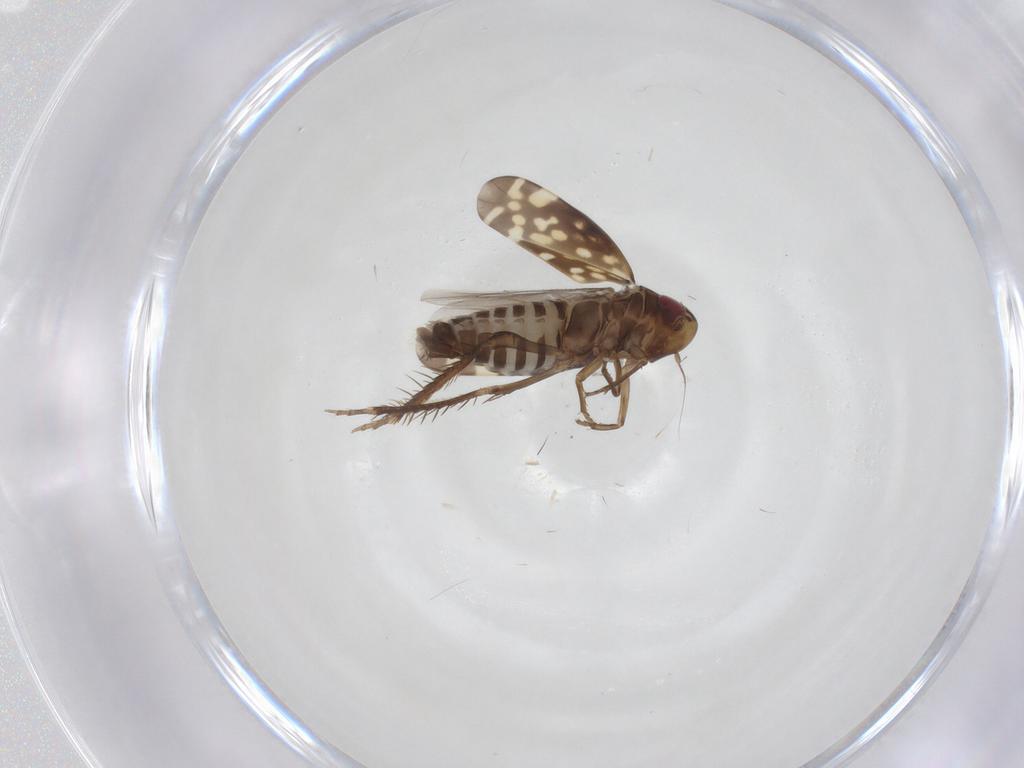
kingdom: Animalia
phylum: Arthropoda
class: Insecta
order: Hemiptera
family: Cicadellidae
